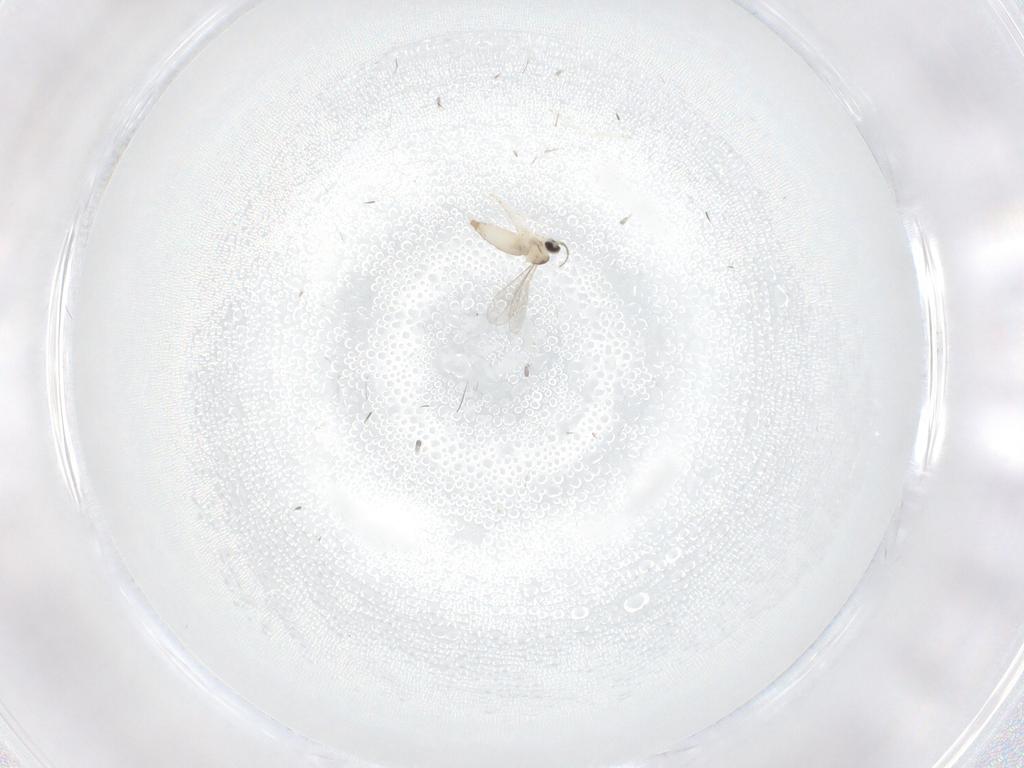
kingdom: Animalia
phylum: Arthropoda
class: Insecta
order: Diptera
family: Cecidomyiidae
